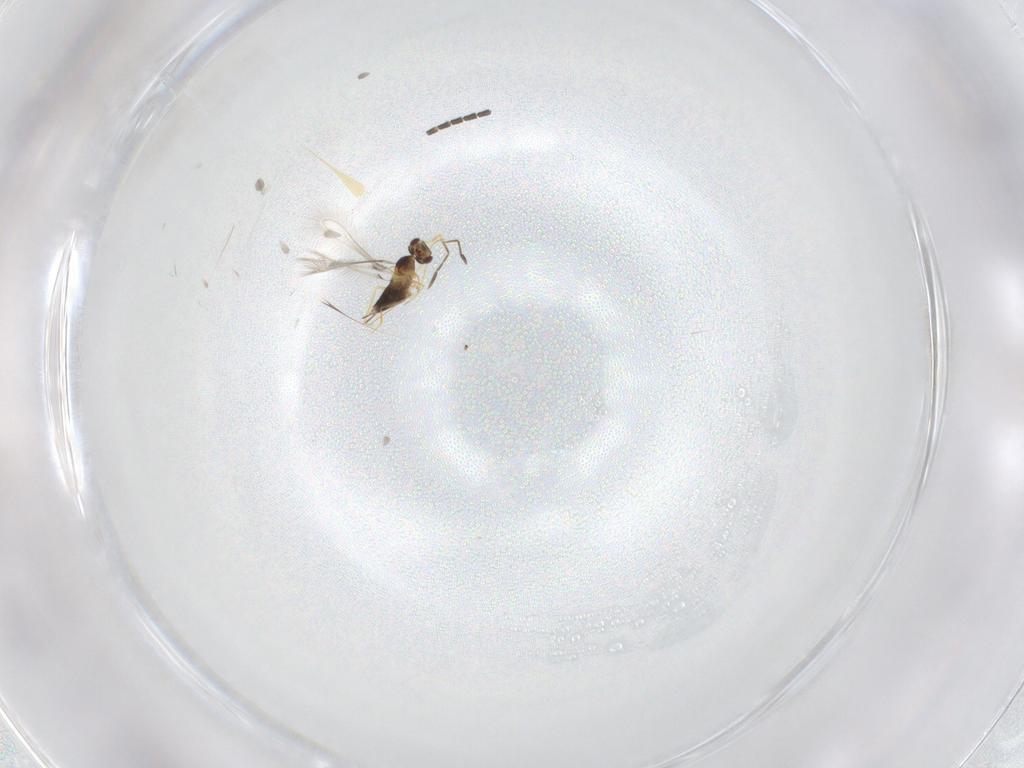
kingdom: Animalia
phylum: Arthropoda
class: Insecta
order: Hymenoptera
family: Mymaridae
